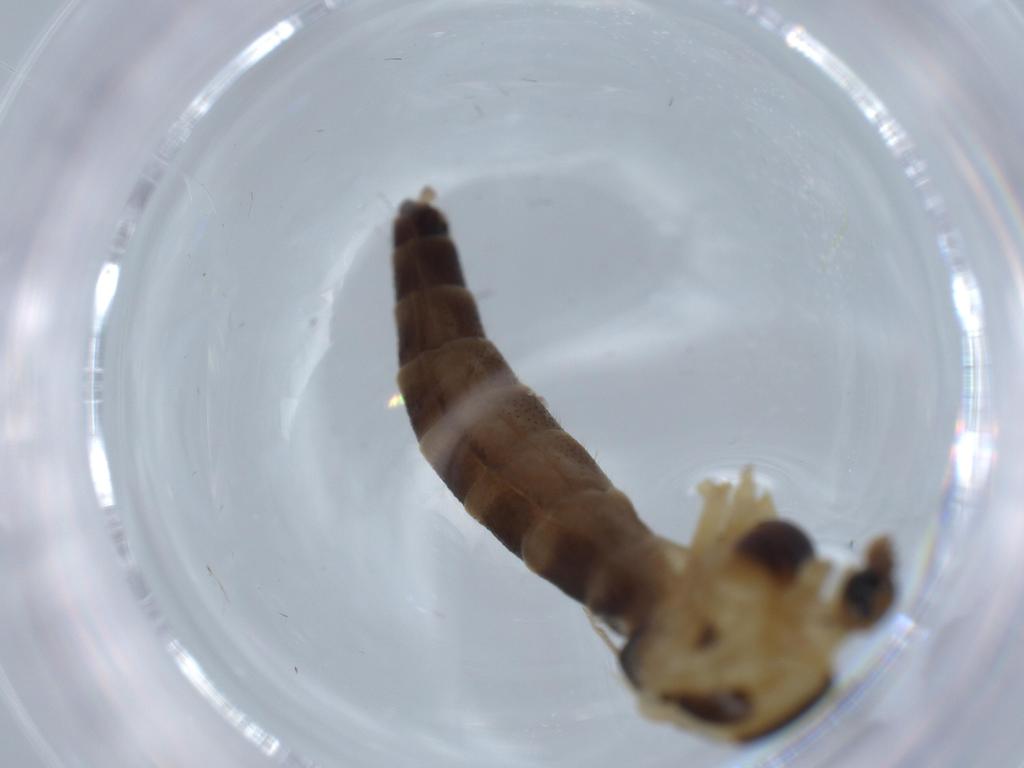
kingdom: Animalia
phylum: Arthropoda
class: Insecta
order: Diptera
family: Chironomidae
